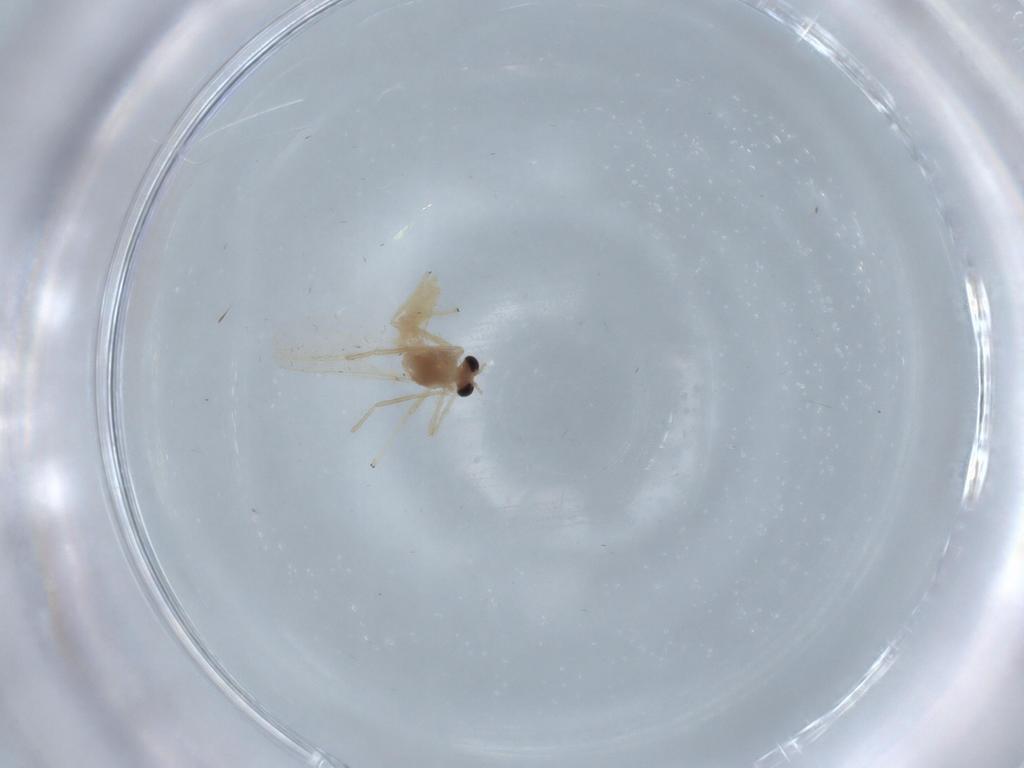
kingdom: Animalia
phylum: Arthropoda
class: Insecta
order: Diptera
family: Chironomidae
